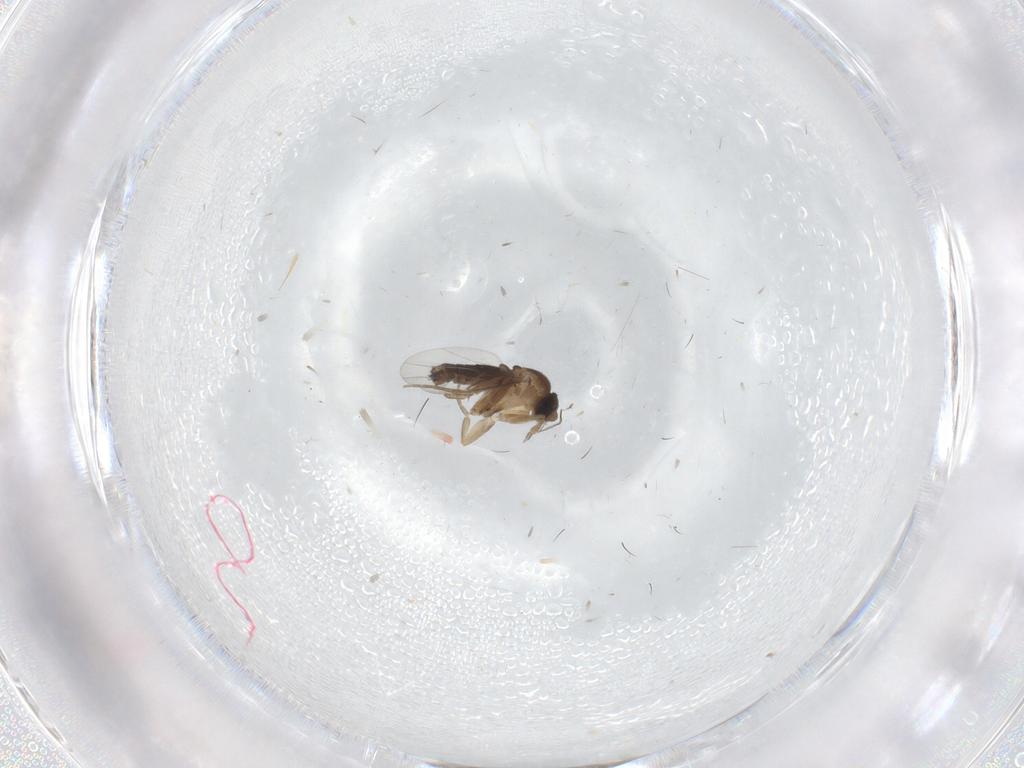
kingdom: Animalia
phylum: Arthropoda
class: Insecta
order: Diptera
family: Phoridae
